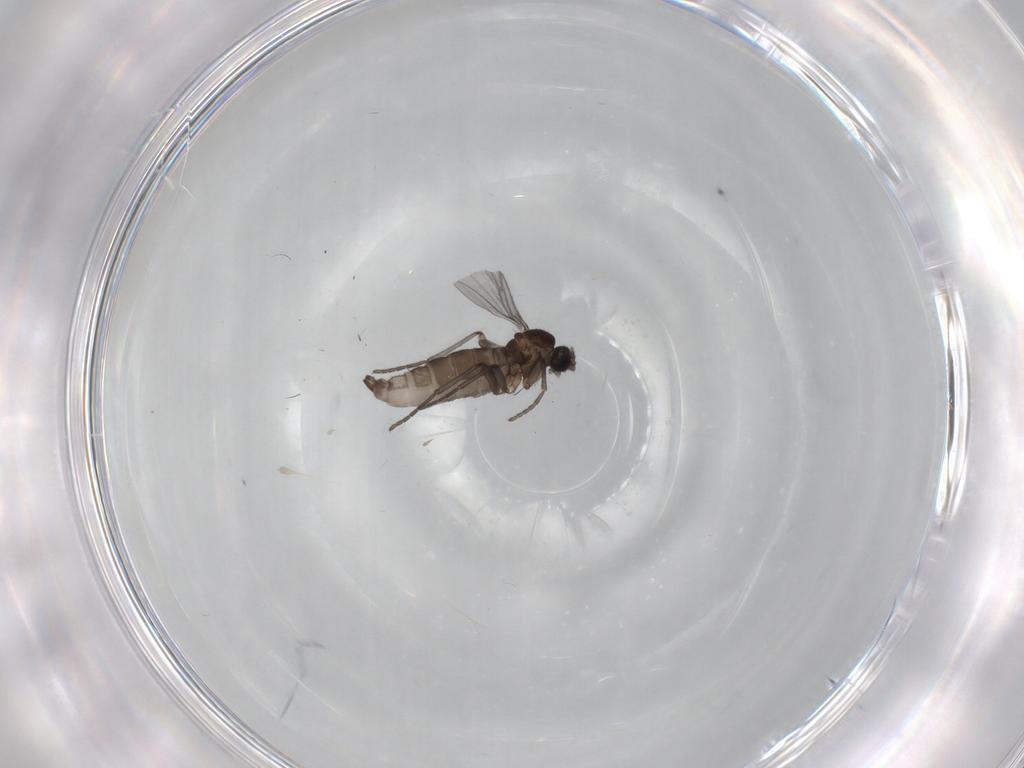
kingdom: Animalia
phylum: Arthropoda
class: Insecta
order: Diptera
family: Sciaridae
